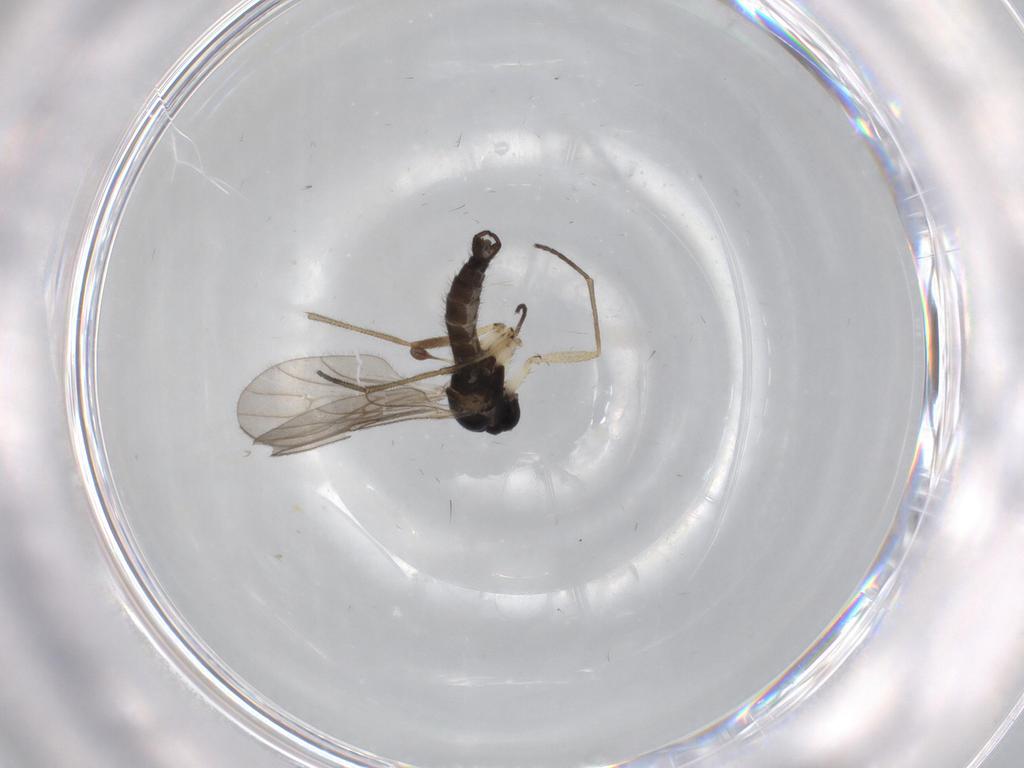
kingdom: Animalia
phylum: Arthropoda
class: Insecta
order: Diptera
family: Sciaridae
